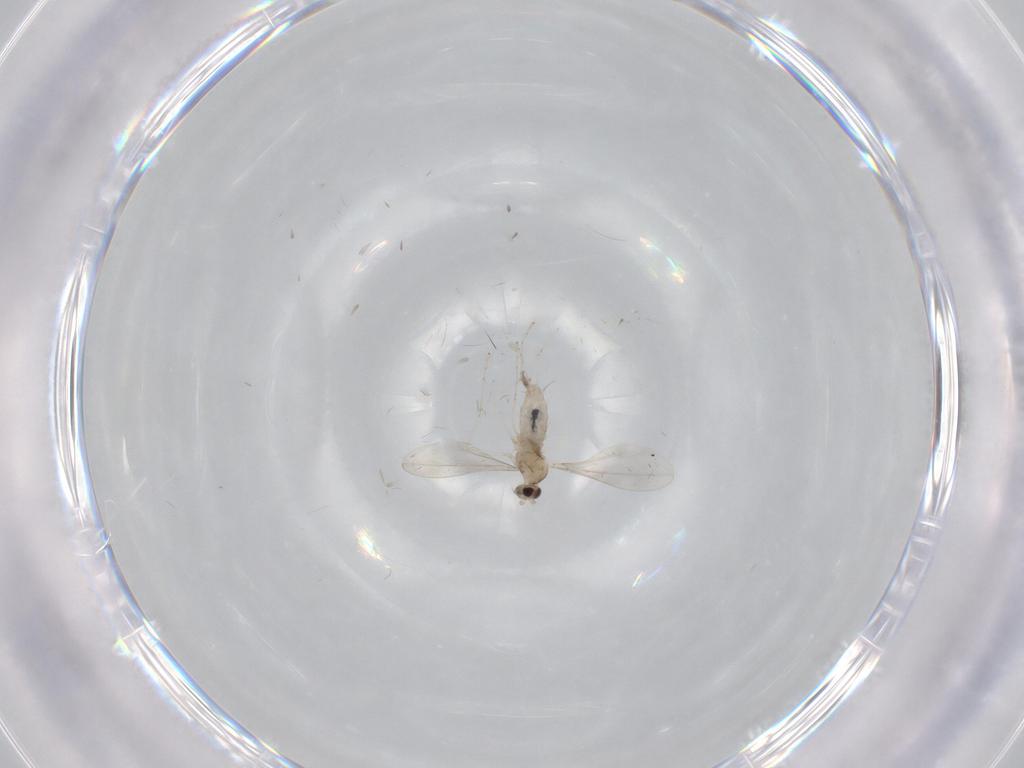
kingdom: Animalia
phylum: Arthropoda
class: Insecta
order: Diptera
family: Cecidomyiidae
